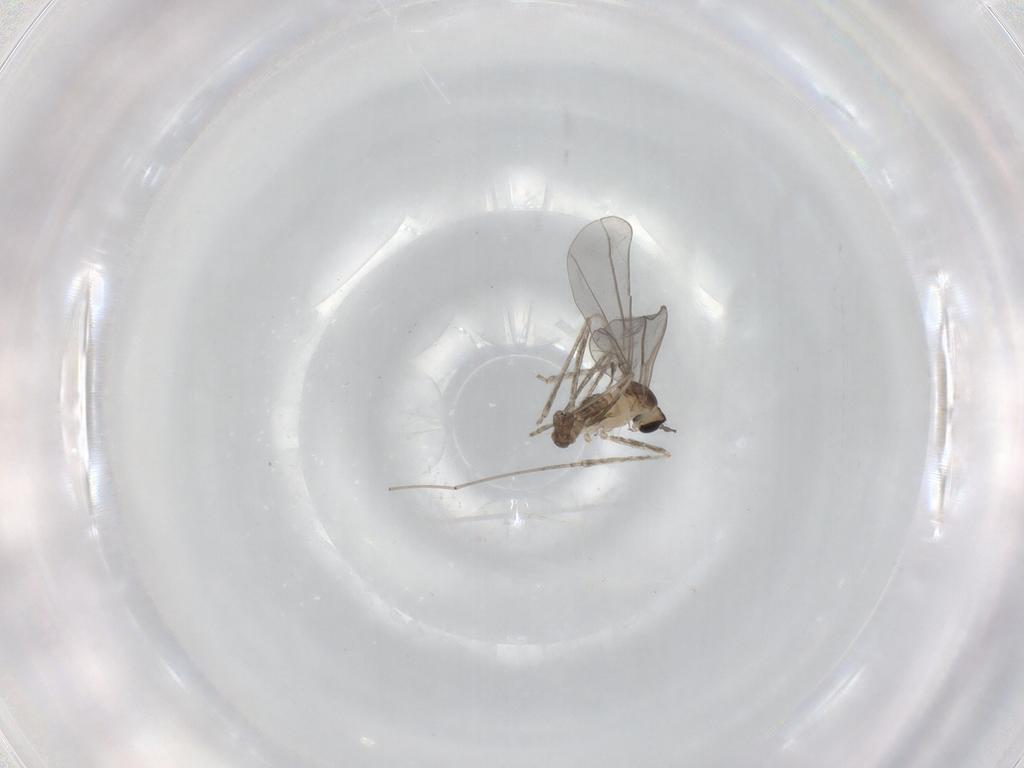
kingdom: Animalia
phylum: Arthropoda
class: Insecta
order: Diptera
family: Cecidomyiidae
